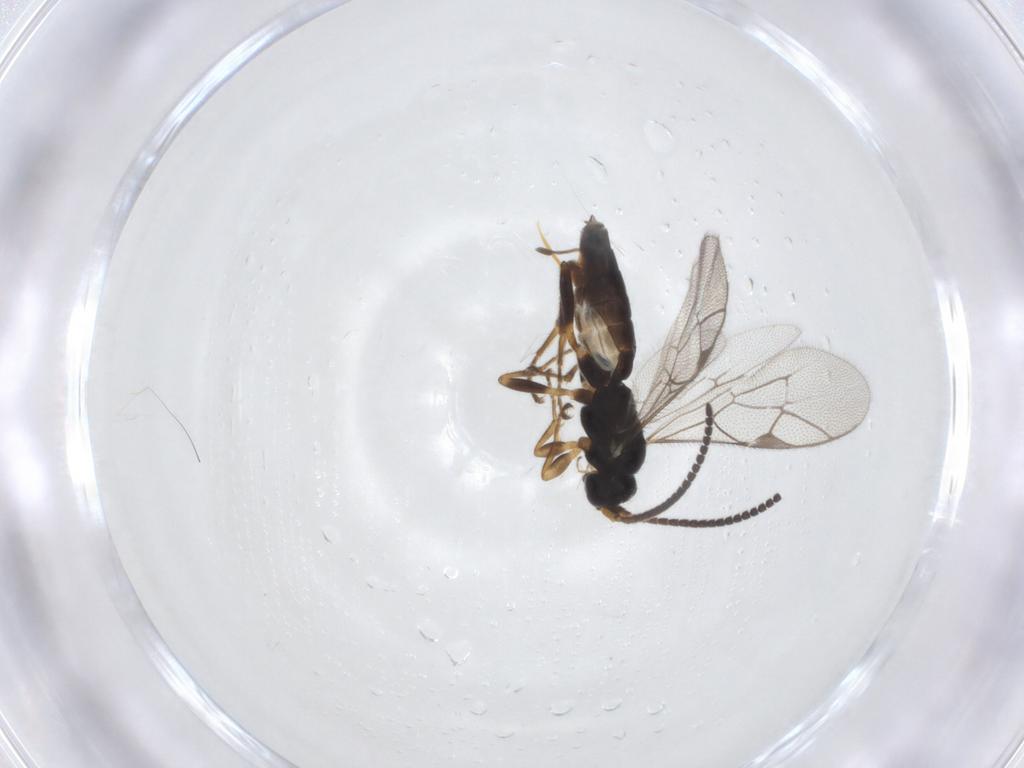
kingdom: Animalia
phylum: Arthropoda
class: Insecta
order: Hymenoptera
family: Ichneumonidae
